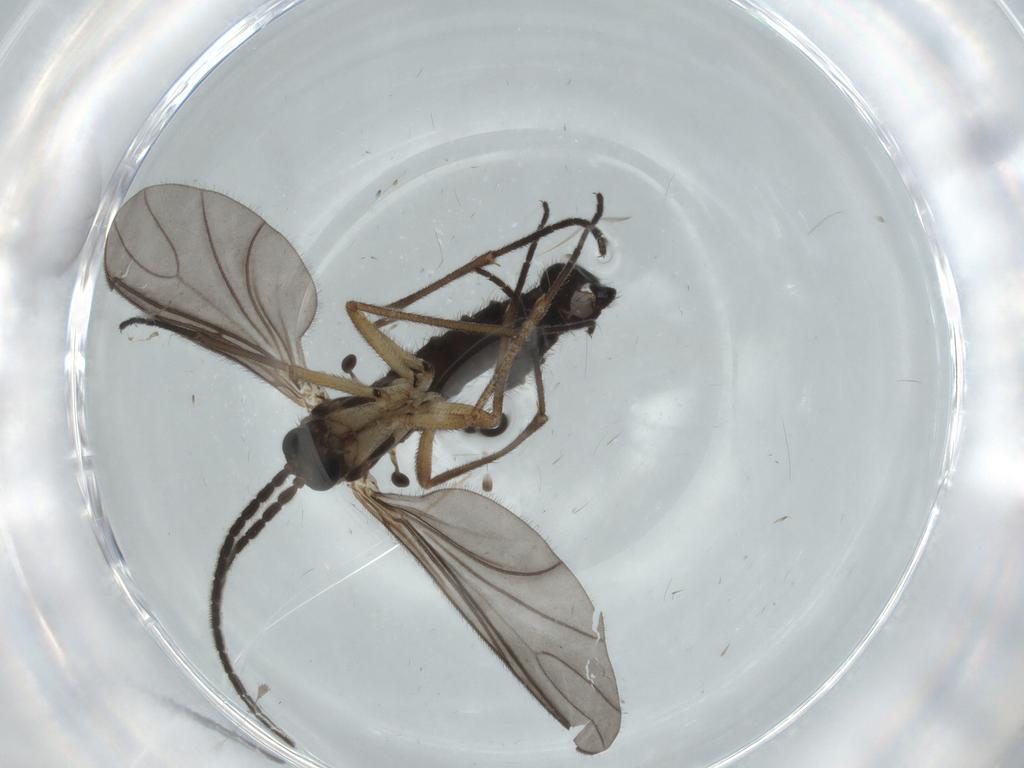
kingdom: Animalia
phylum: Arthropoda
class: Insecta
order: Diptera
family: Sciaridae
